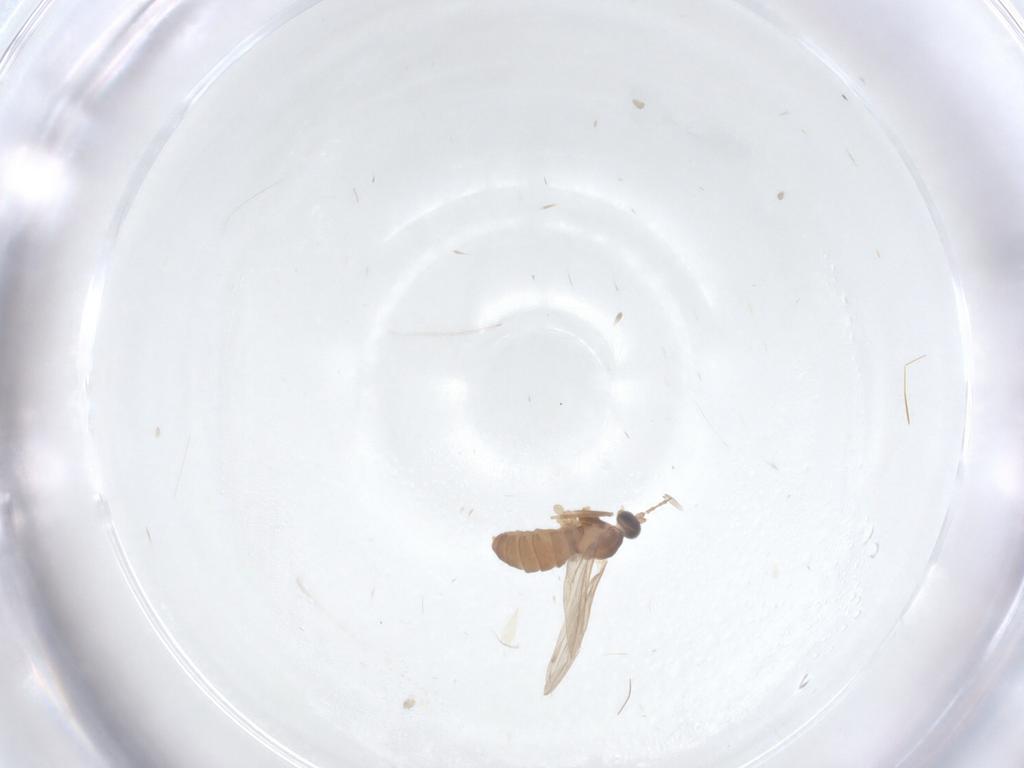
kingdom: Animalia
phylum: Arthropoda
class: Insecta
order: Diptera
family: Cecidomyiidae
